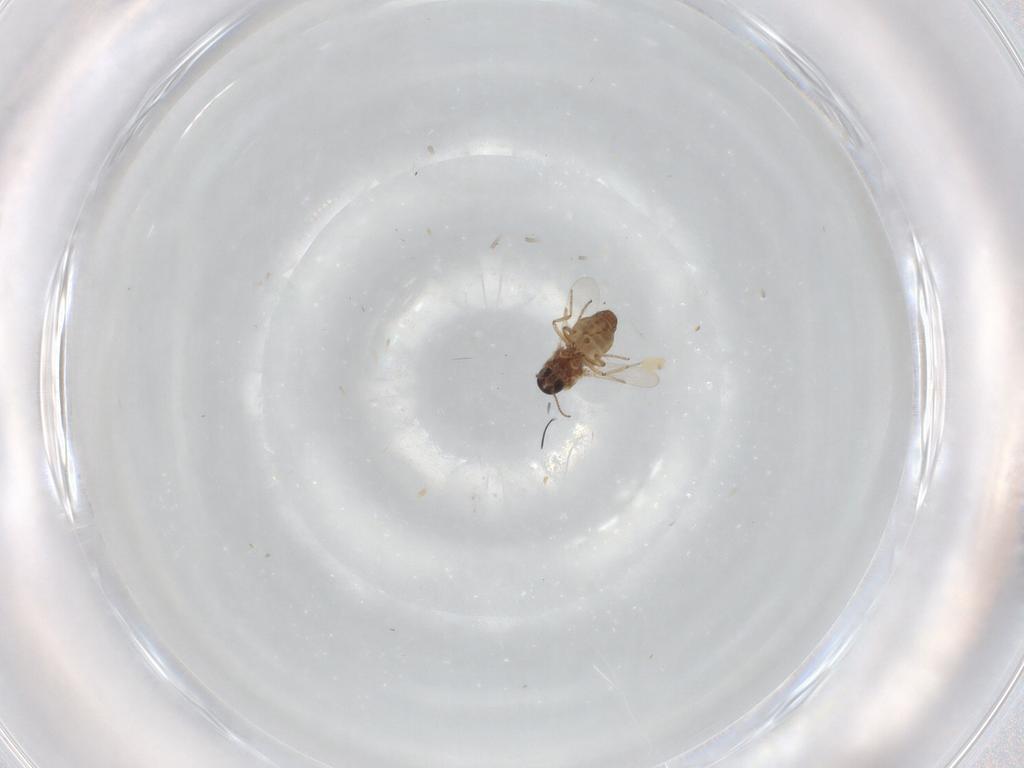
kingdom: Animalia
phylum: Arthropoda
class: Insecta
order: Diptera
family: Ceratopogonidae
